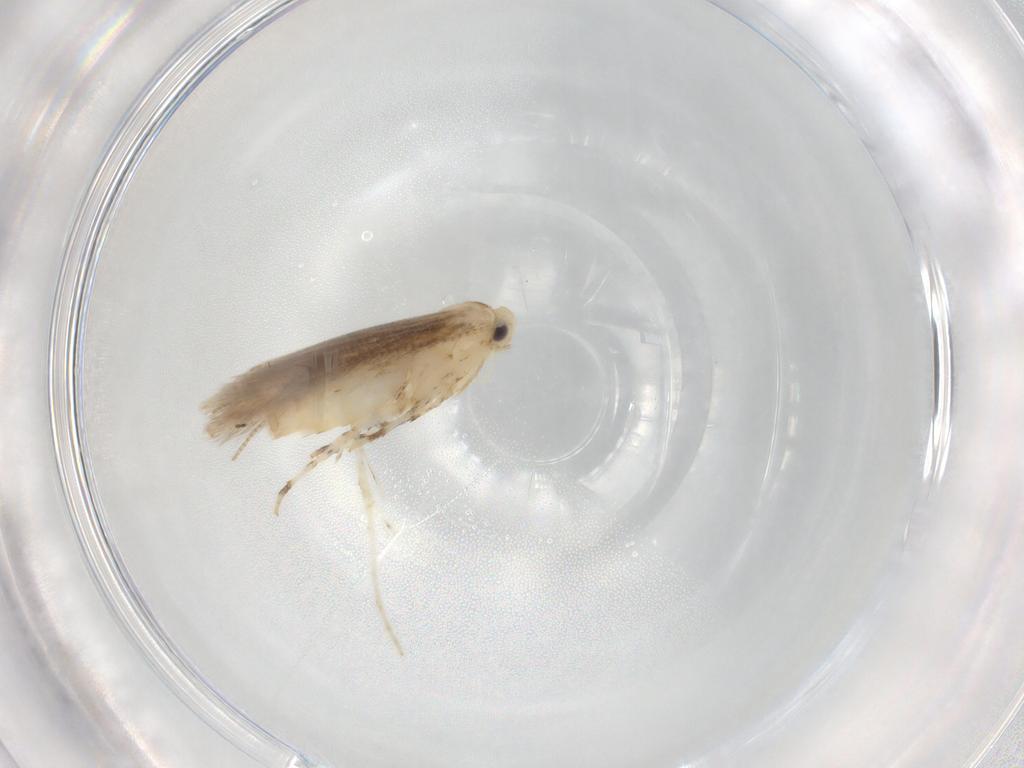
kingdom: Animalia
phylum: Arthropoda
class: Insecta
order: Lepidoptera
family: Gracillariidae
